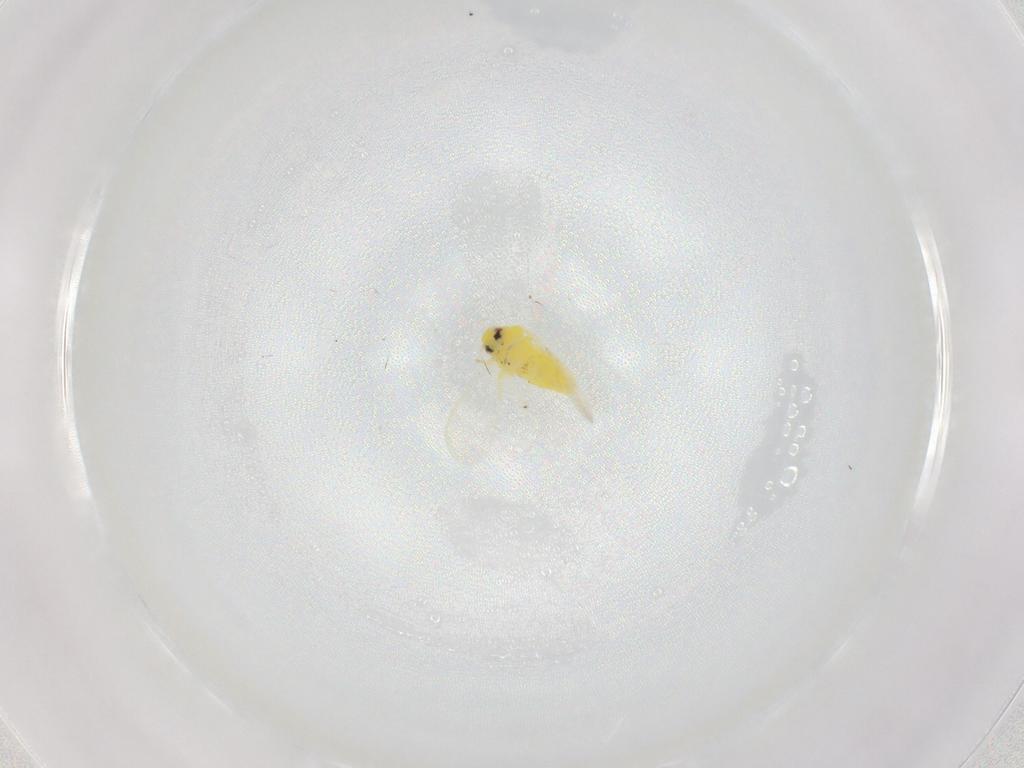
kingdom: Animalia
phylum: Arthropoda
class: Insecta
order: Hemiptera
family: Aleyrodidae
